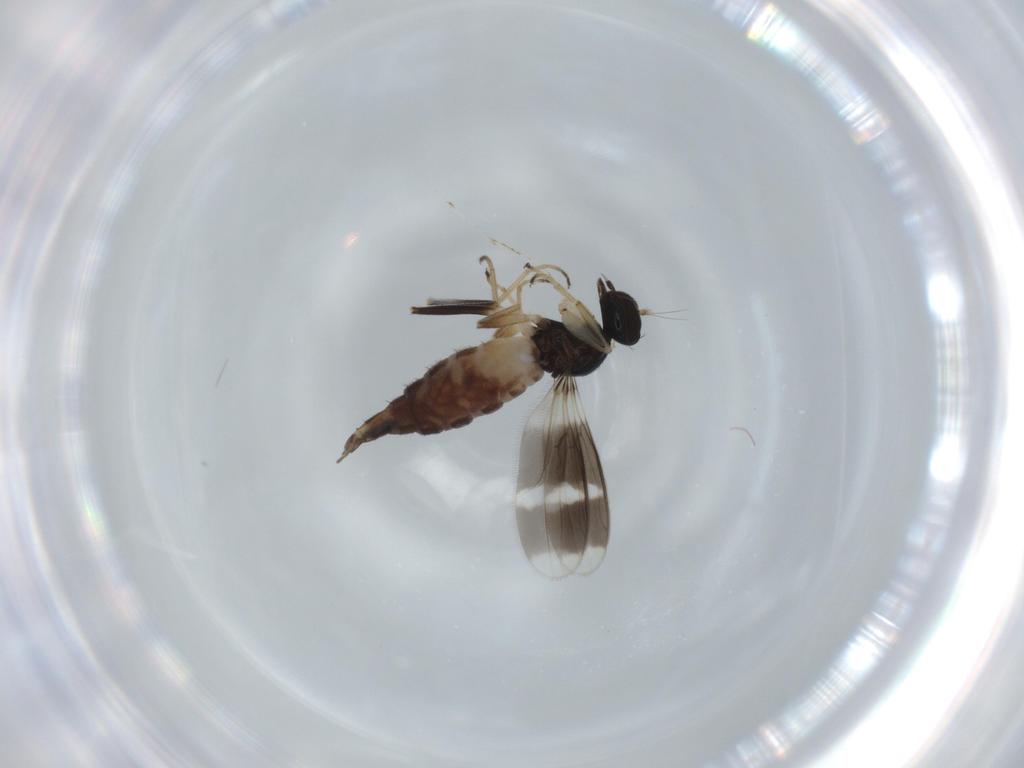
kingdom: Animalia
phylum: Arthropoda
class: Insecta
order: Diptera
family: Hybotidae
